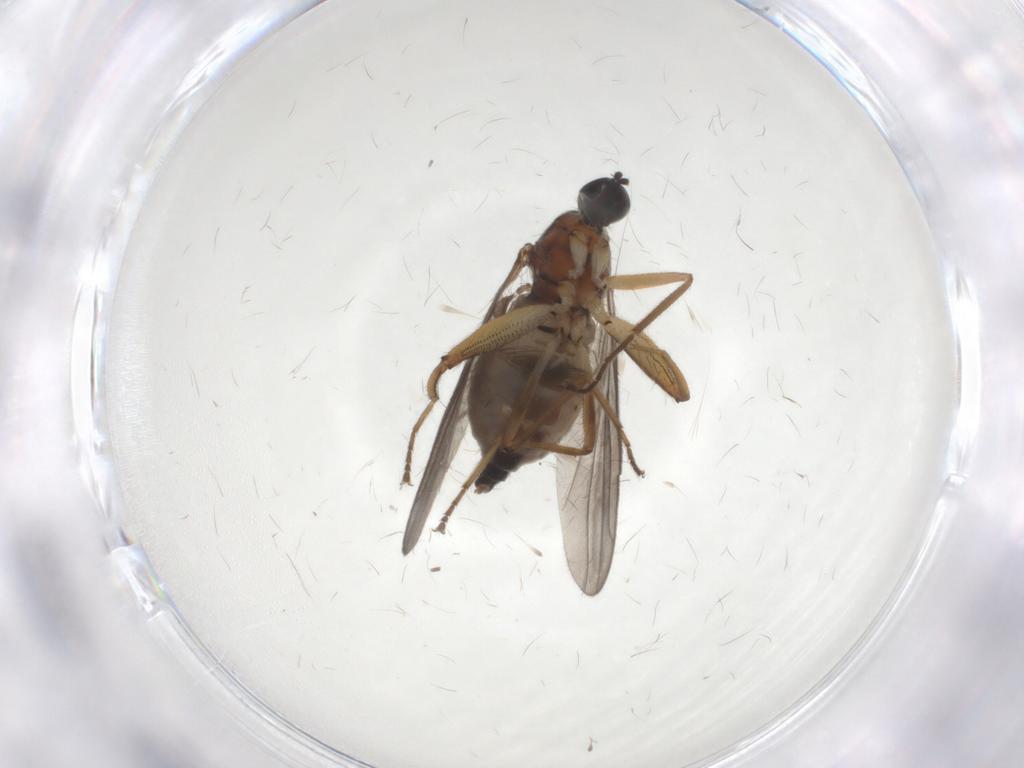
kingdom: Animalia
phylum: Arthropoda
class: Insecta
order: Diptera
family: Hybotidae
